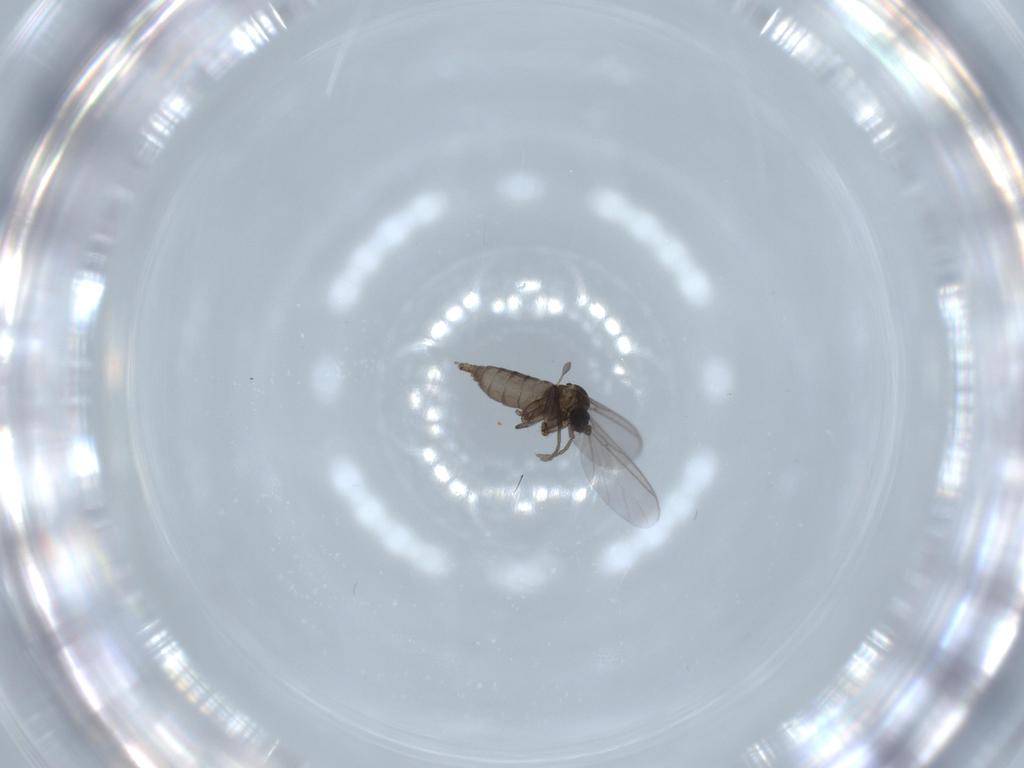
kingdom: Animalia
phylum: Arthropoda
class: Insecta
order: Diptera
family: Sciaridae
